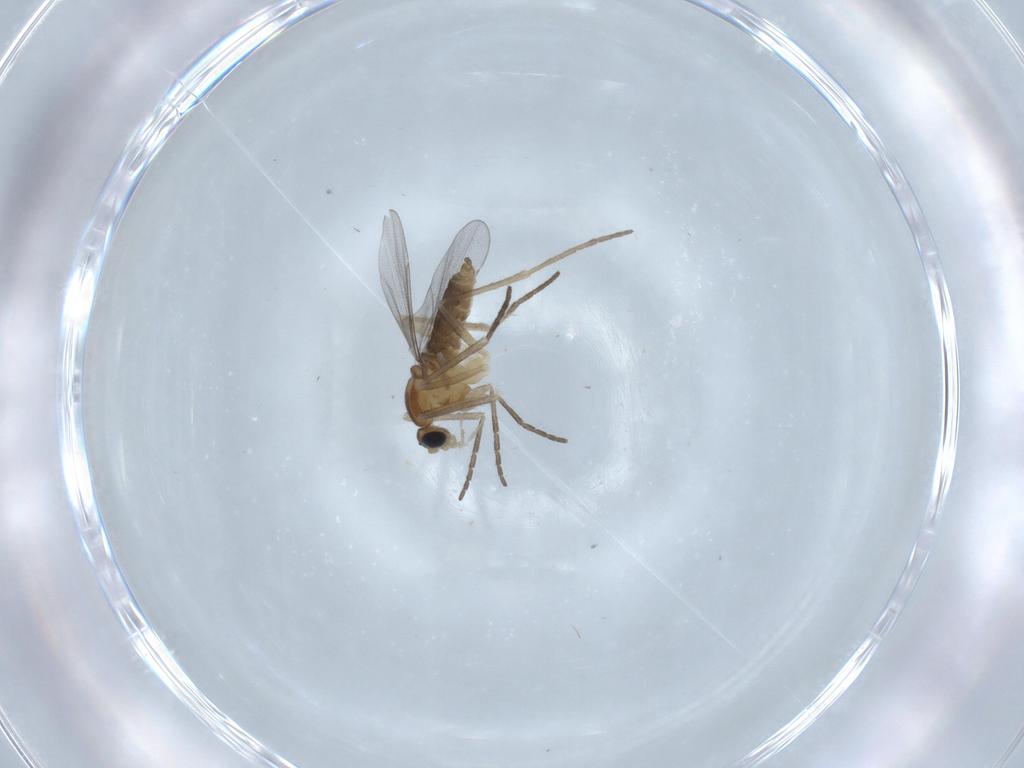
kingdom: Animalia
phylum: Arthropoda
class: Insecta
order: Diptera
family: Cecidomyiidae
